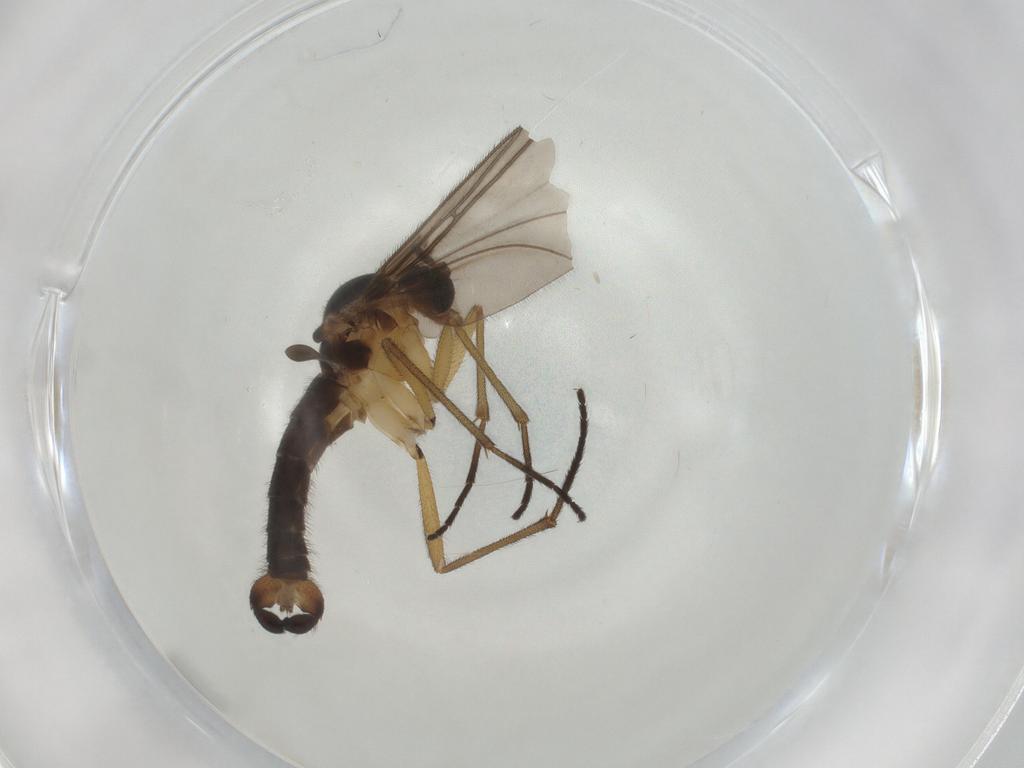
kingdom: Animalia
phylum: Arthropoda
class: Insecta
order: Diptera
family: Sciaridae
